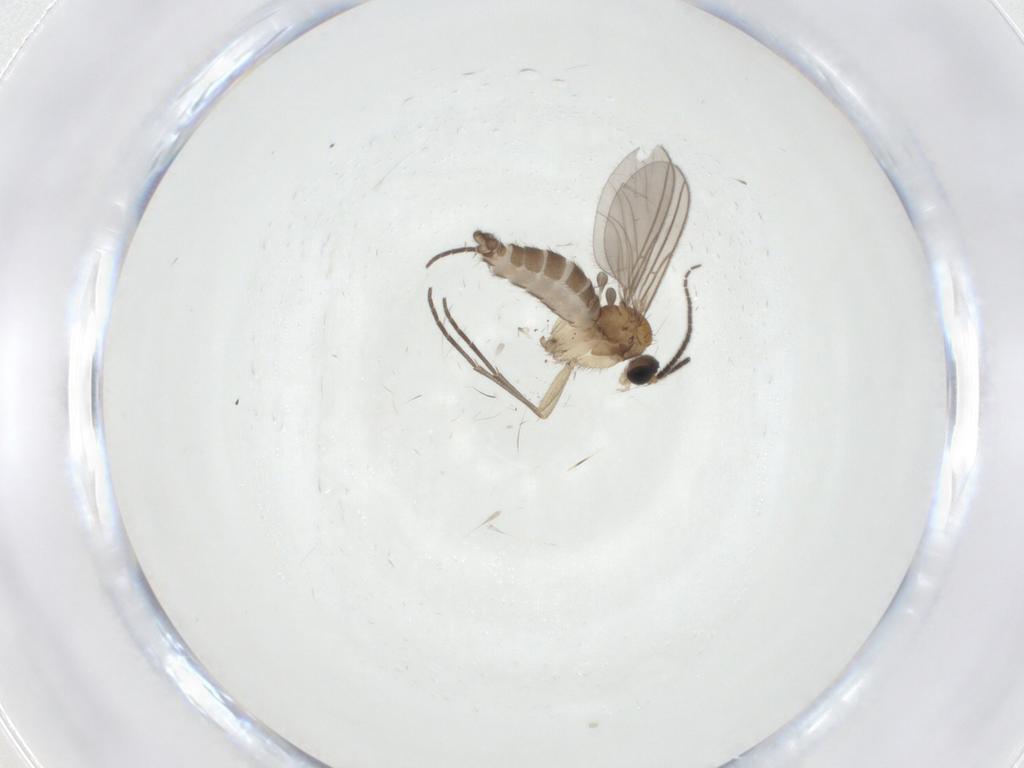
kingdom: Animalia
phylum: Arthropoda
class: Insecta
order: Diptera
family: Sciaridae
